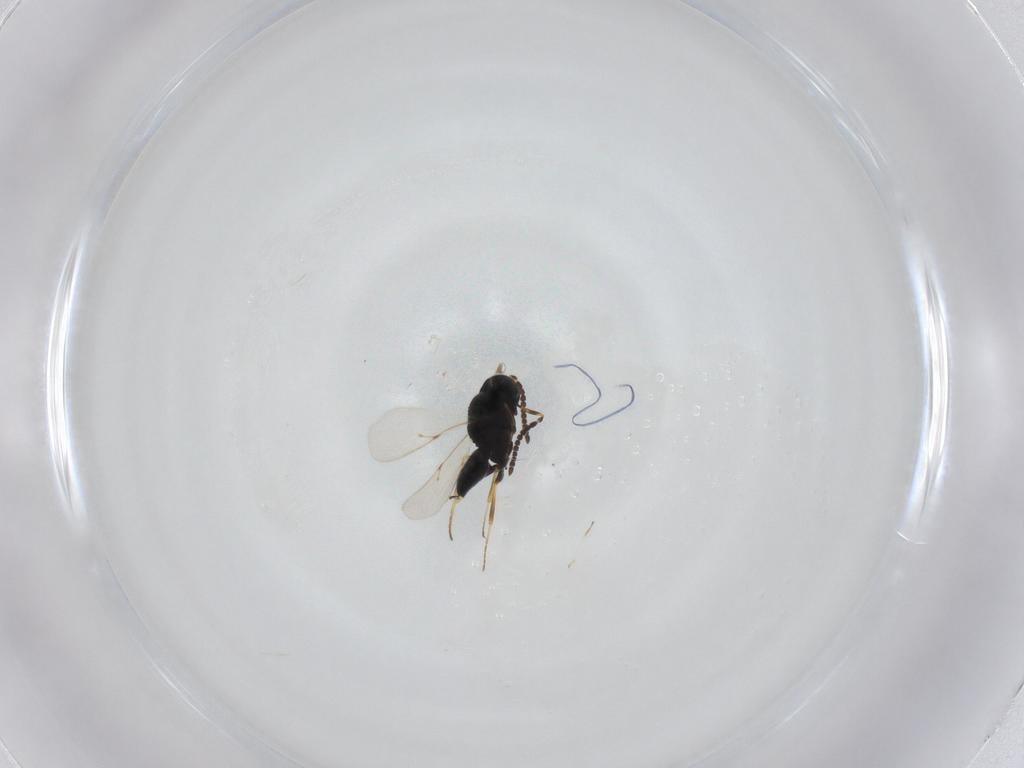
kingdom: Animalia
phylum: Arthropoda
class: Insecta
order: Hymenoptera
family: Scelionidae
